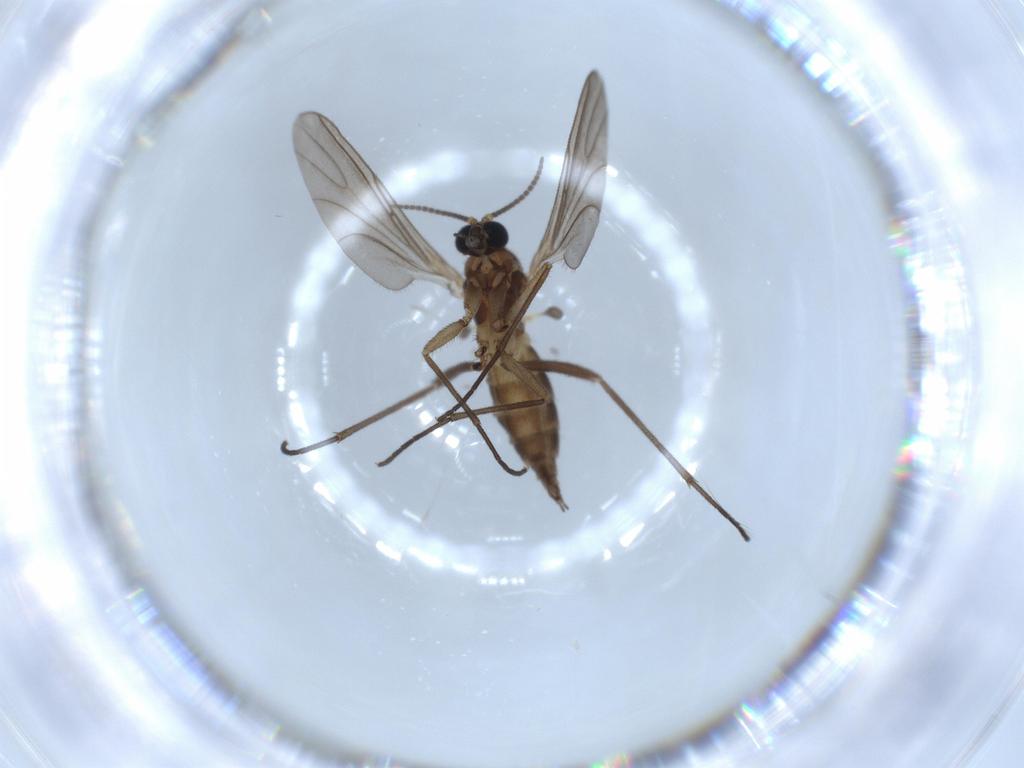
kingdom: Animalia
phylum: Arthropoda
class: Insecta
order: Diptera
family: Sciaridae
